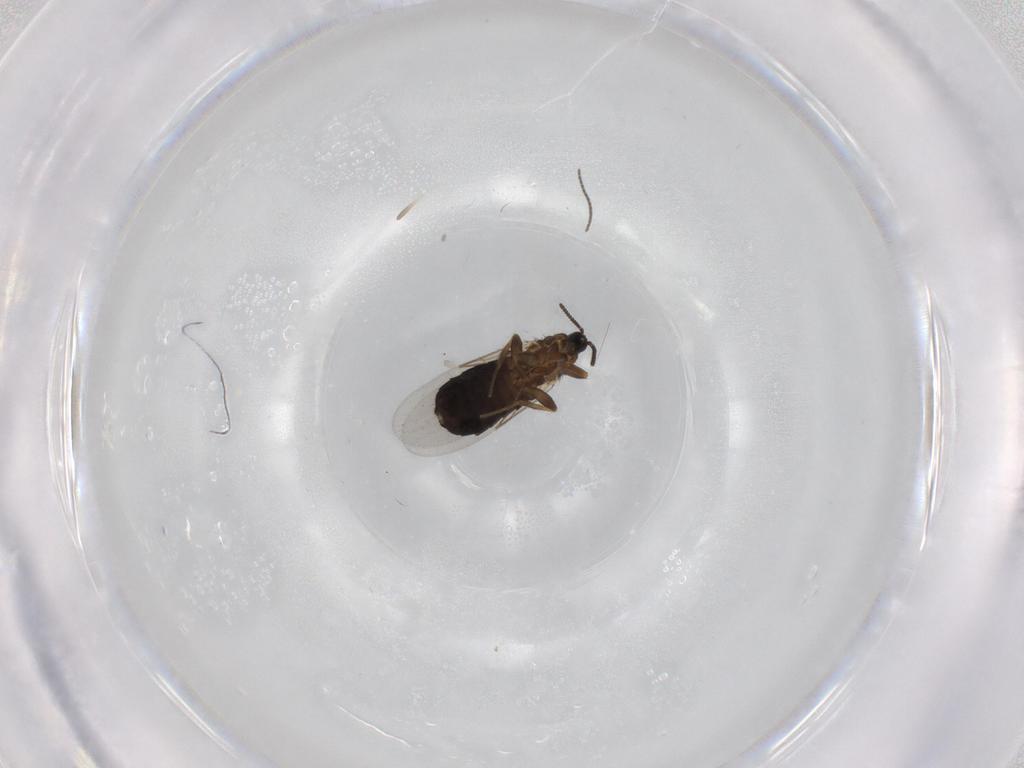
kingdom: Animalia
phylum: Arthropoda
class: Insecta
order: Diptera
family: Scatopsidae
